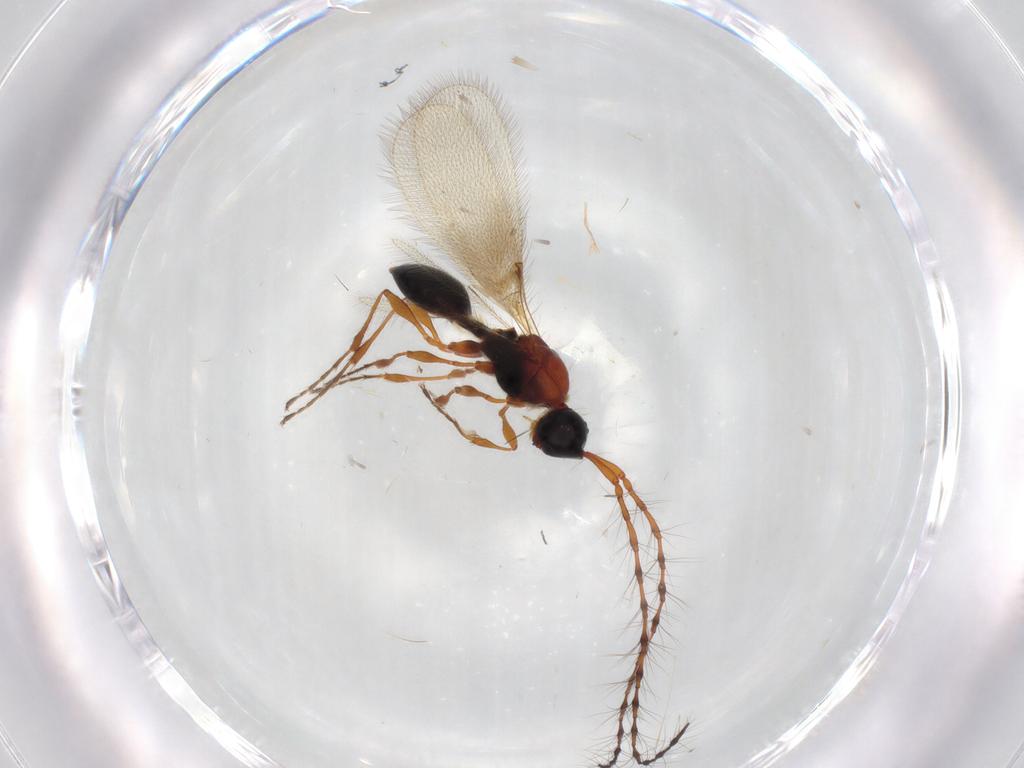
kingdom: Animalia
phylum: Arthropoda
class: Insecta
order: Hymenoptera
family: Diapriidae
